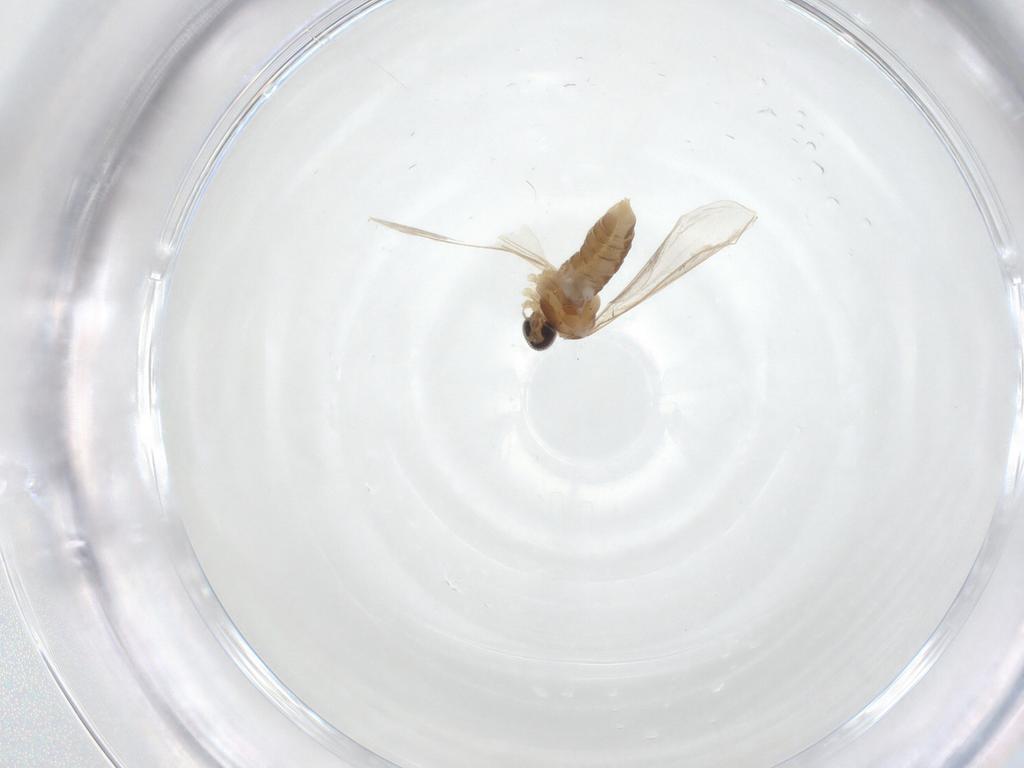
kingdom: Animalia
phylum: Arthropoda
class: Insecta
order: Diptera
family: Cecidomyiidae
